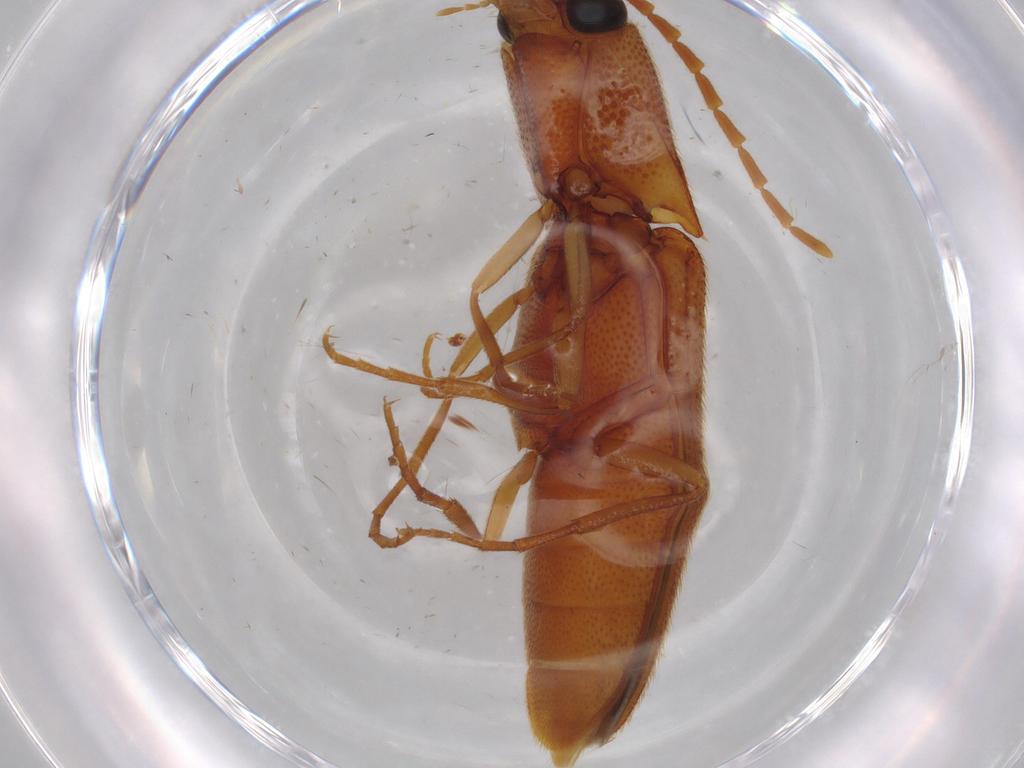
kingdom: Animalia
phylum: Arthropoda
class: Insecta
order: Coleoptera
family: Elateridae
